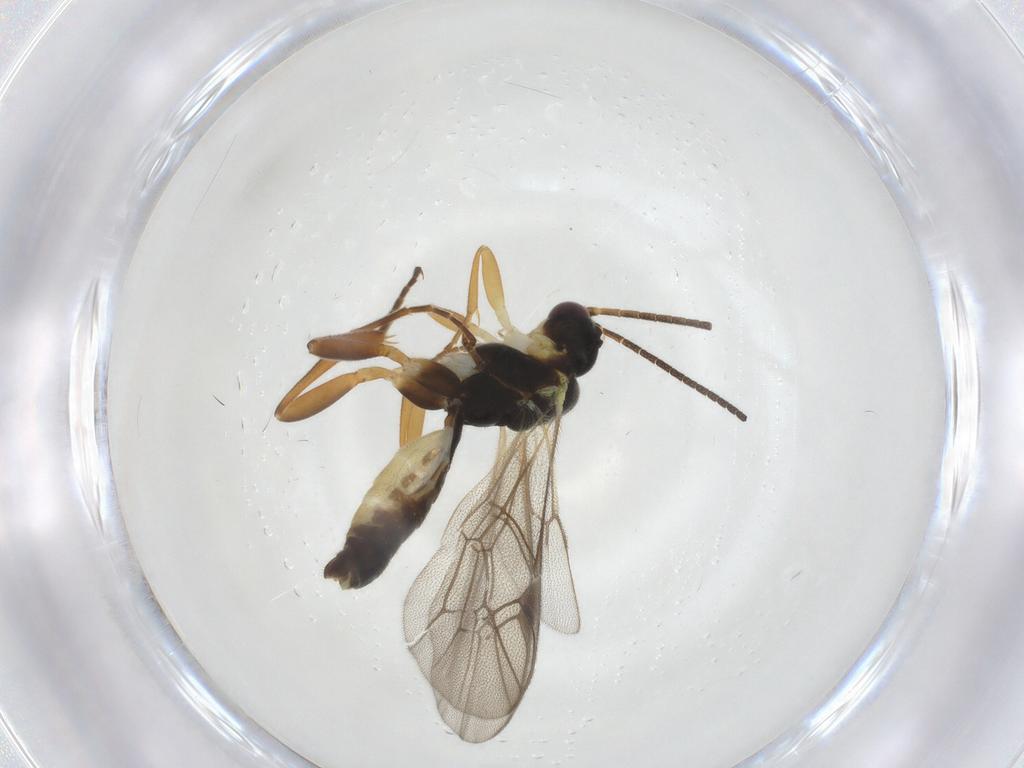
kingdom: Animalia
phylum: Arthropoda
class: Insecta
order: Hymenoptera
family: Ichneumonidae
